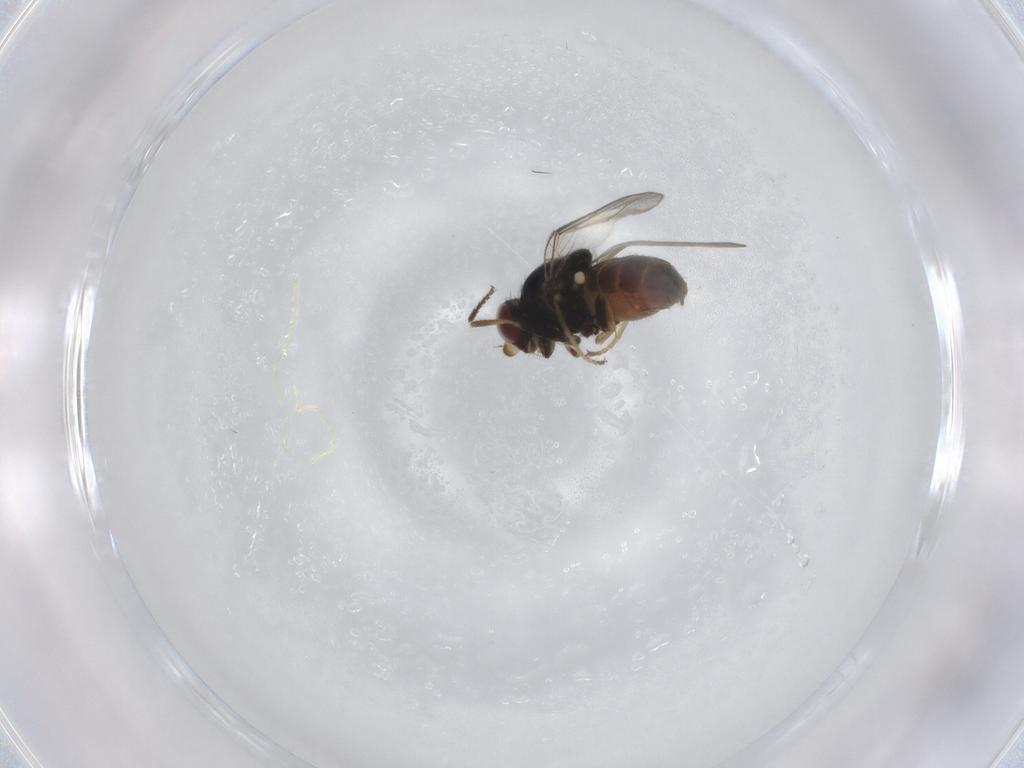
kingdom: Animalia
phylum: Arthropoda
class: Insecta
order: Diptera
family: Chloropidae
